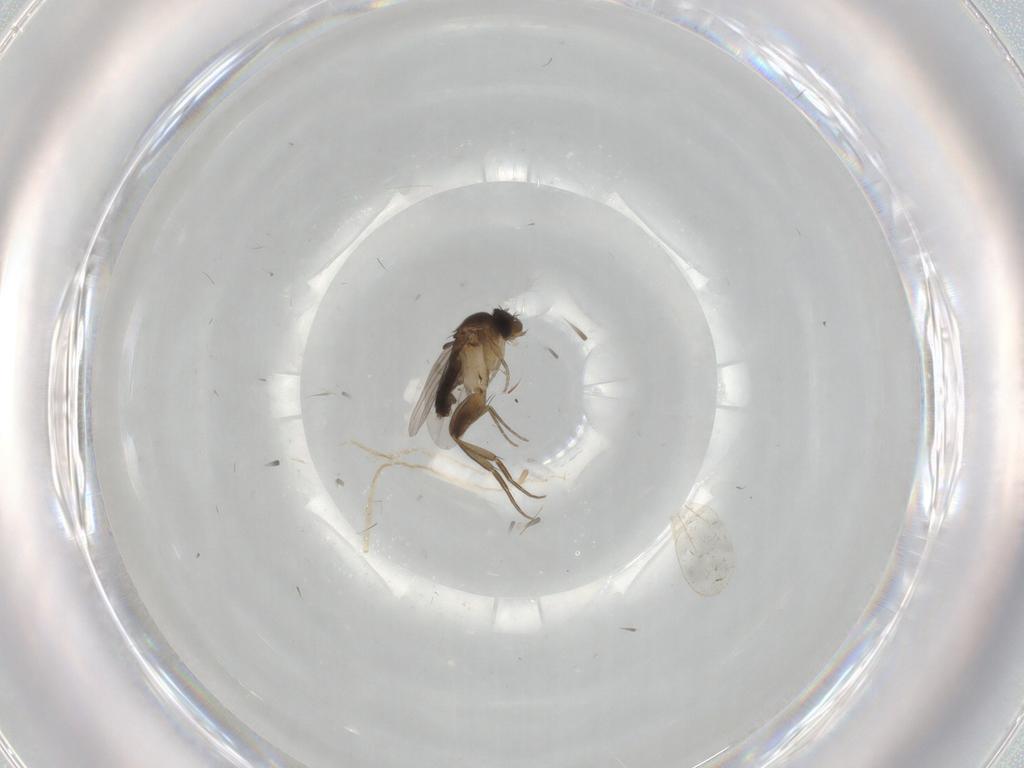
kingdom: Animalia
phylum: Arthropoda
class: Insecta
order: Diptera
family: Phoridae
